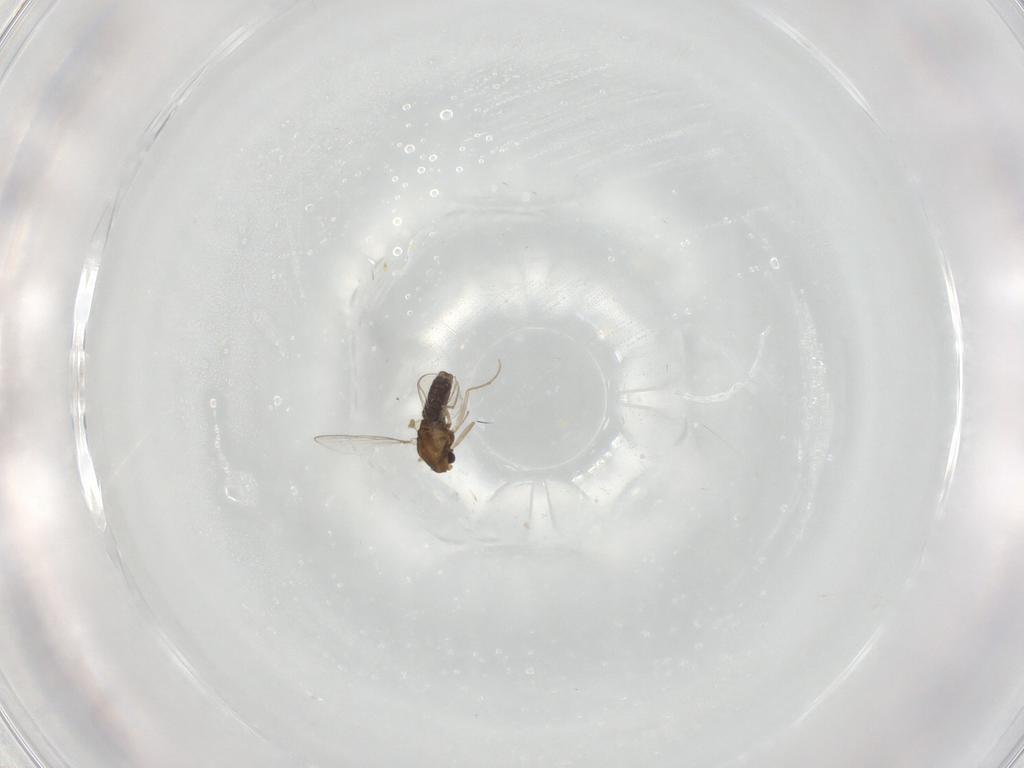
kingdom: Animalia
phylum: Arthropoda
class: Insecta
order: Diptera
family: Chironomidae
